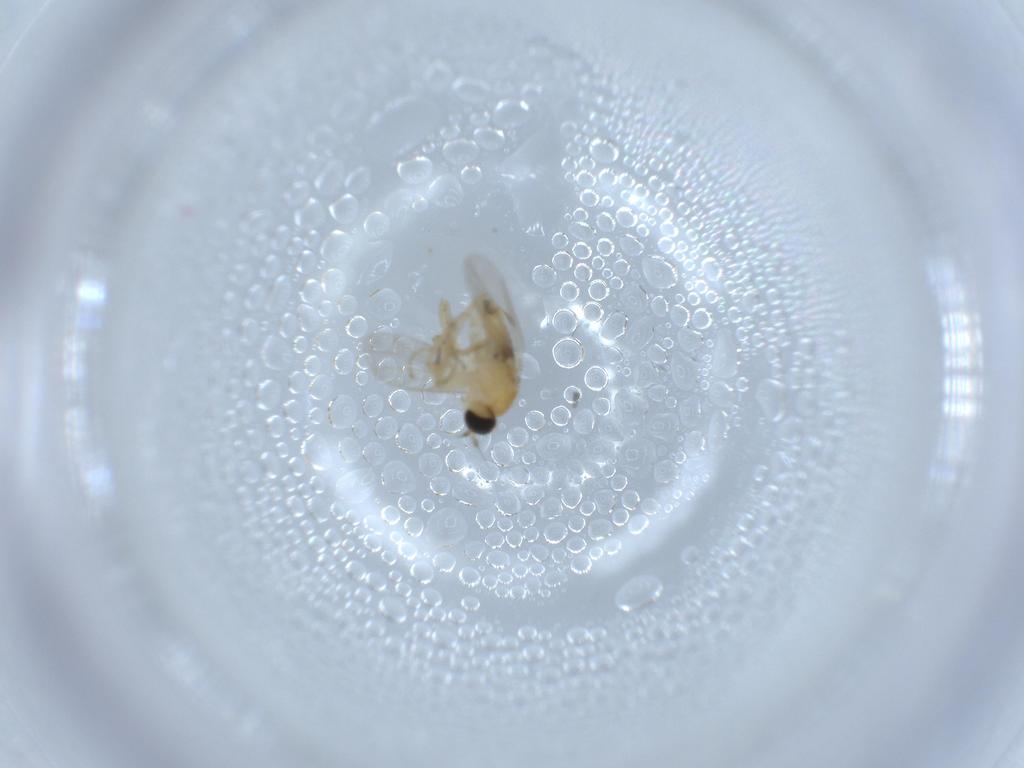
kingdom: Animalia
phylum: Arthropoda
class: Insecta
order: Diptera
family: Hybotidae
